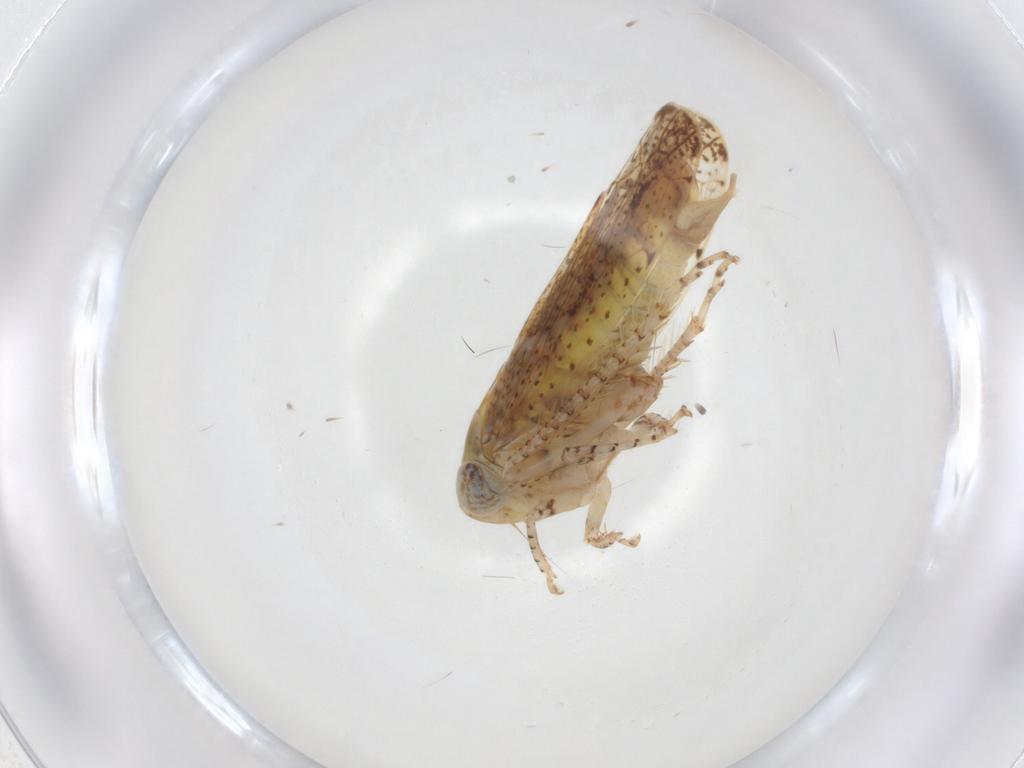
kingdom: Animalia
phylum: Arthropoda
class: Insecta
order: Hemiptera
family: Cicadellidae
